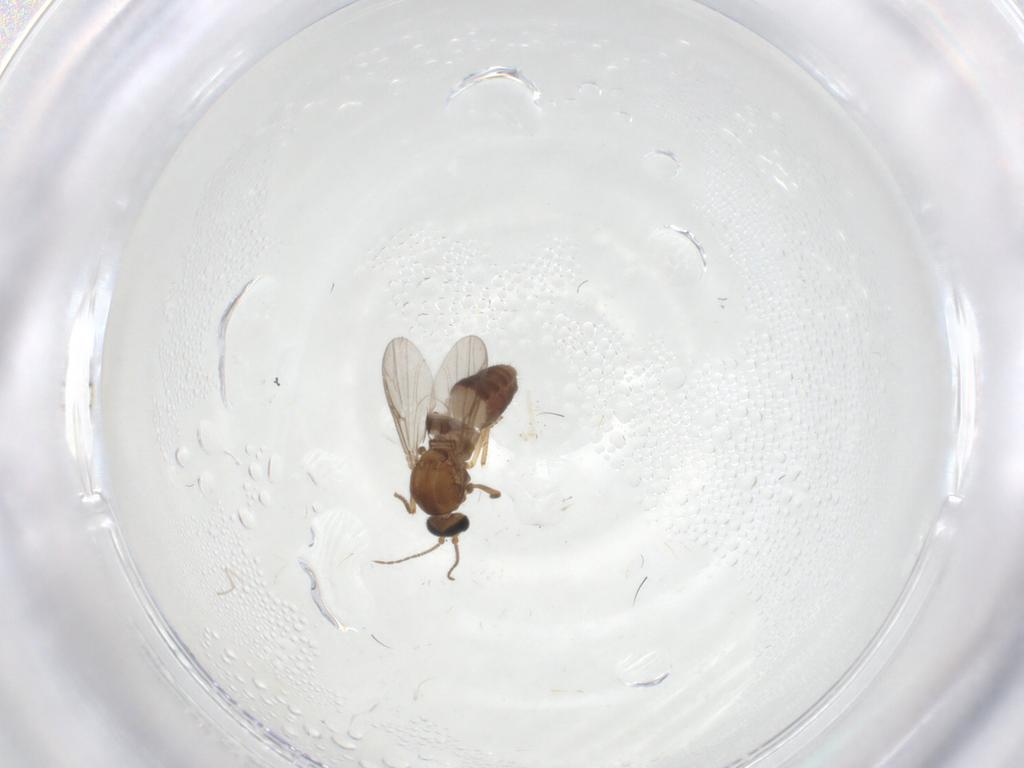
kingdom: Animalia
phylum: Arthropoda
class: Insecta
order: Diptera
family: Ceratopogonidae
